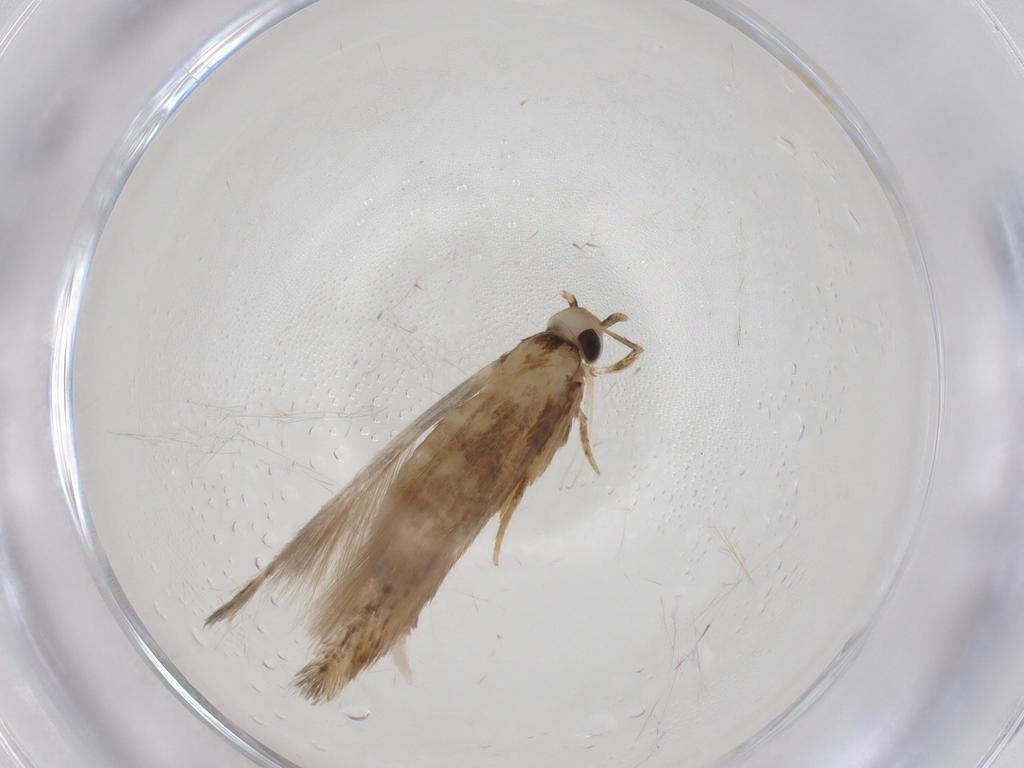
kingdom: Animalia
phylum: Arthropoda
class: Insecta
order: Lepidoptera
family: Coleophoridae
